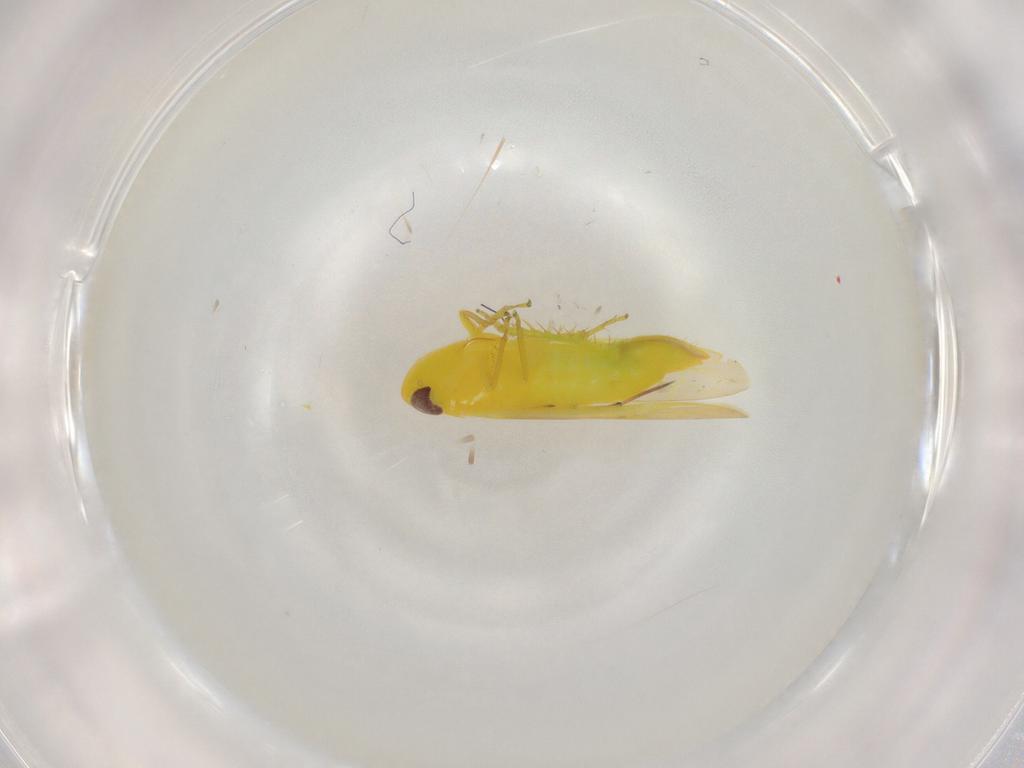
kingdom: Animalia
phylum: Arthropoda
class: Insecta
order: Hemiptera
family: Cicadellidae
